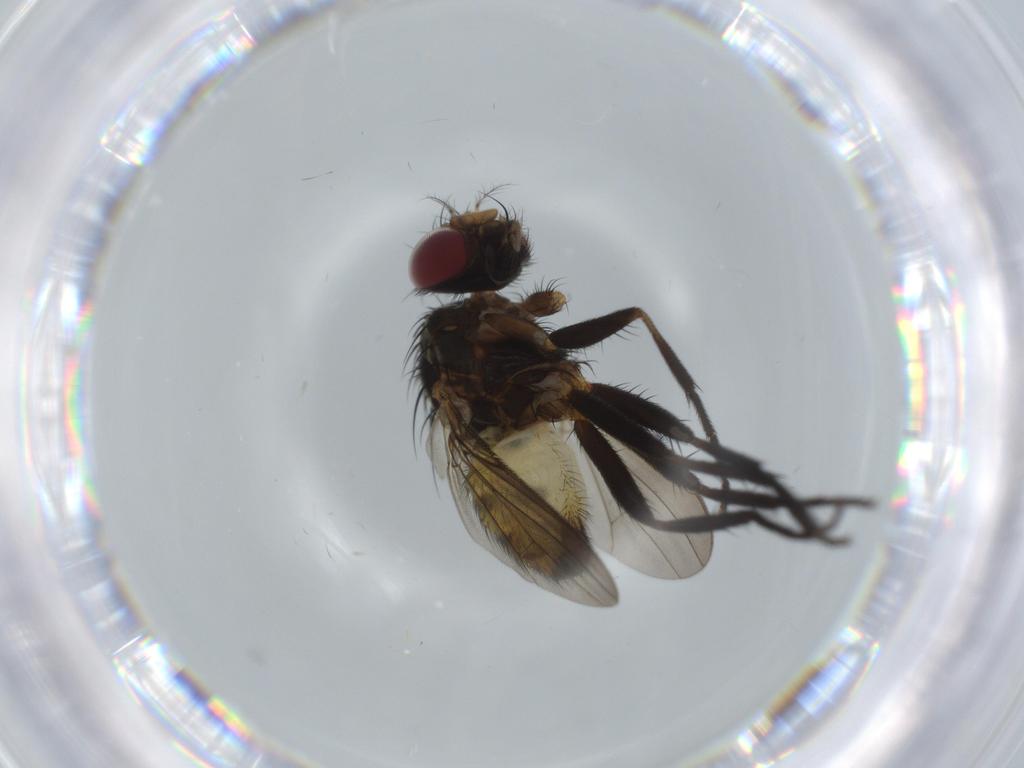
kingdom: Animalia
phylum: Arthropoda
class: Insecta
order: Diptera
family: Anthomyiidae
